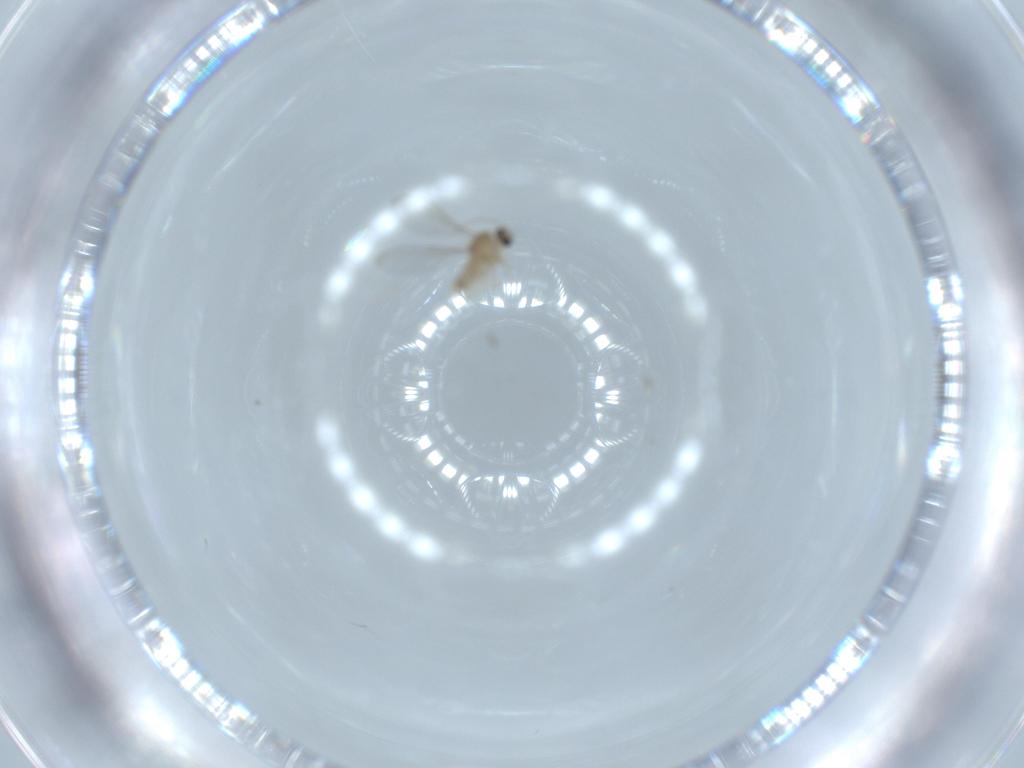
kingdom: Animalia
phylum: Arthropoda
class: Insecta
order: Diptera
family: Cecidomyiidae
